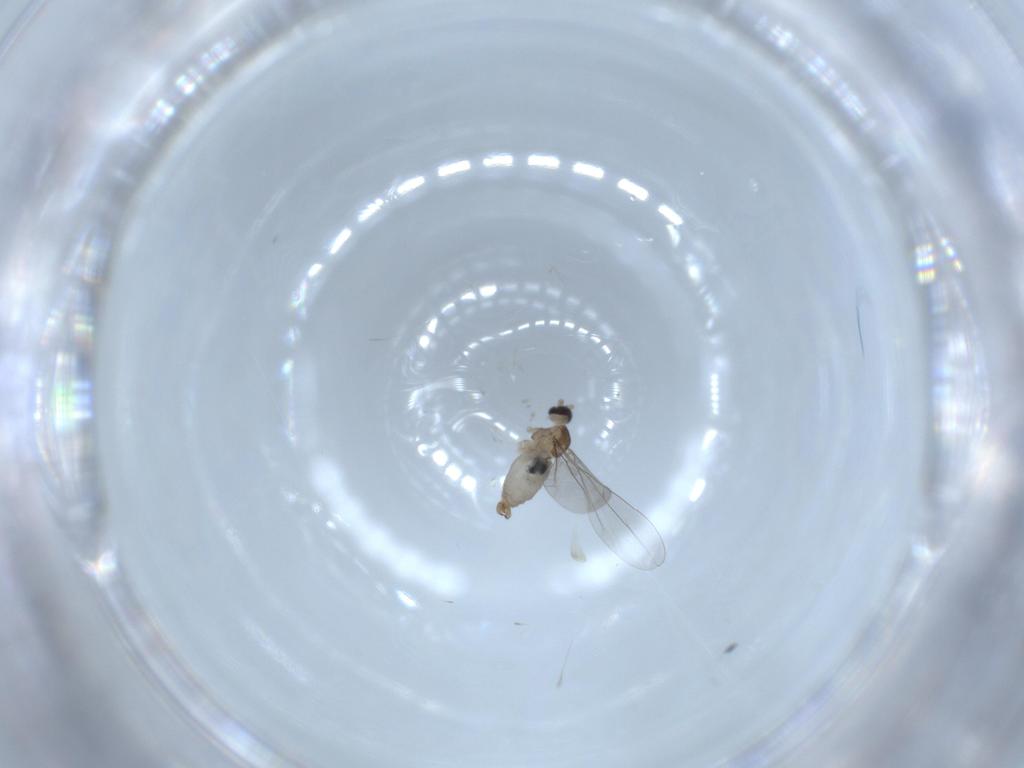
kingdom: Animalia
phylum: Arthropoda
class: Insecta
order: Diptera
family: Cecidomyiidae
